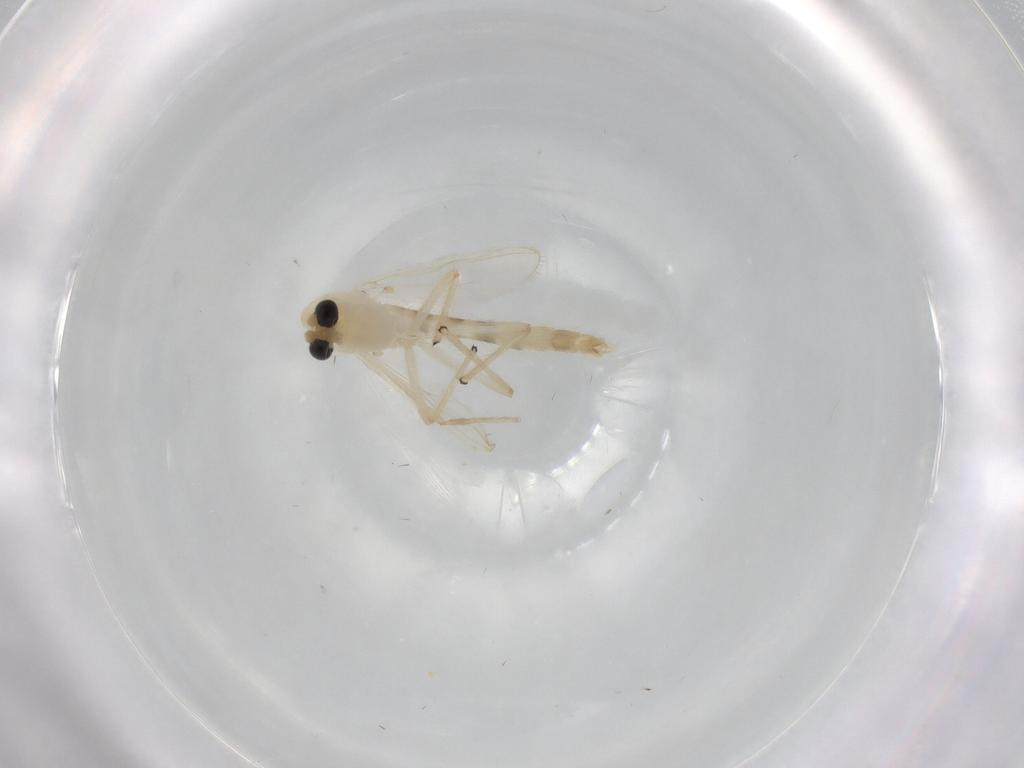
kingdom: Animalia
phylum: Arthropoda
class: Insecta
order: Diptera
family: Chironomidae
